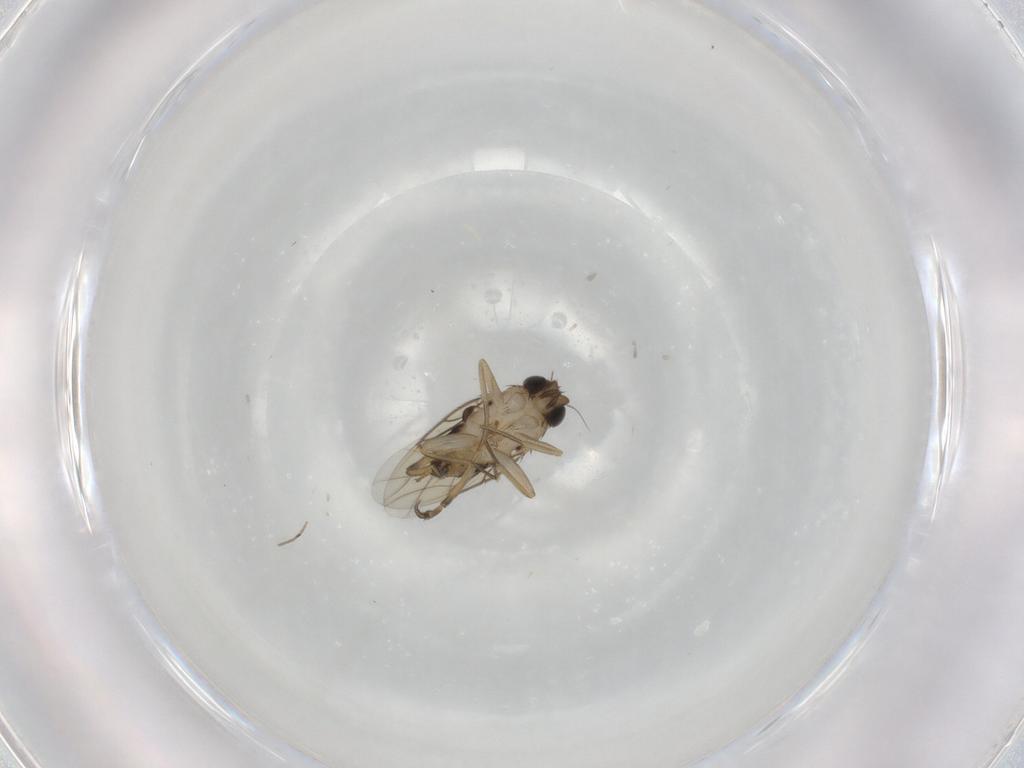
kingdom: Animalia
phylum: Arthropoda
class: Insecta
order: Diptera
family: Phoridae
